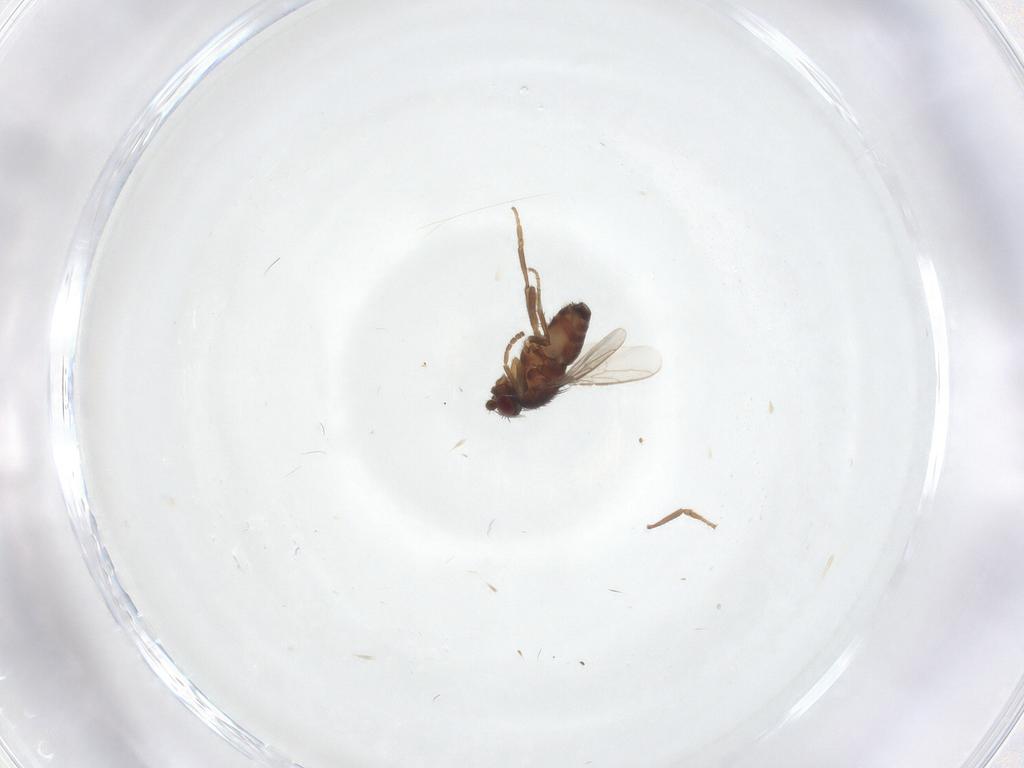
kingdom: Animalia
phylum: Arthropoda
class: Insecta
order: Diptera
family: Sphaeroceridae
